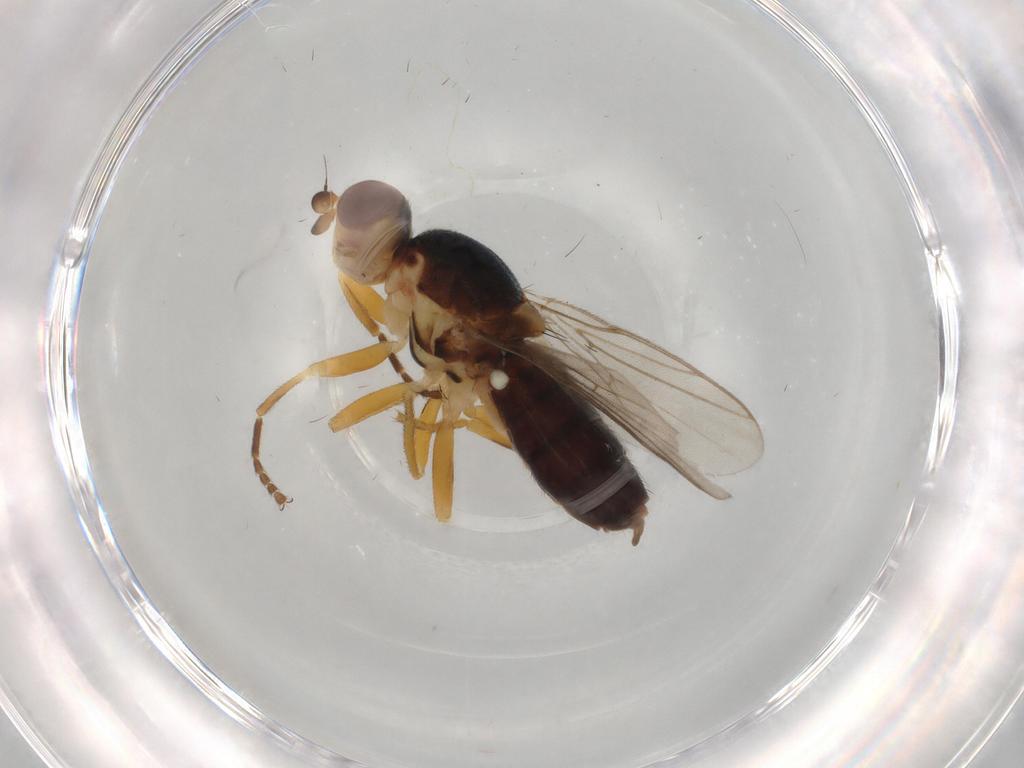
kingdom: Animalia
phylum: Arthropoda
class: Insecta
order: Diptera
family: Chloropidae
